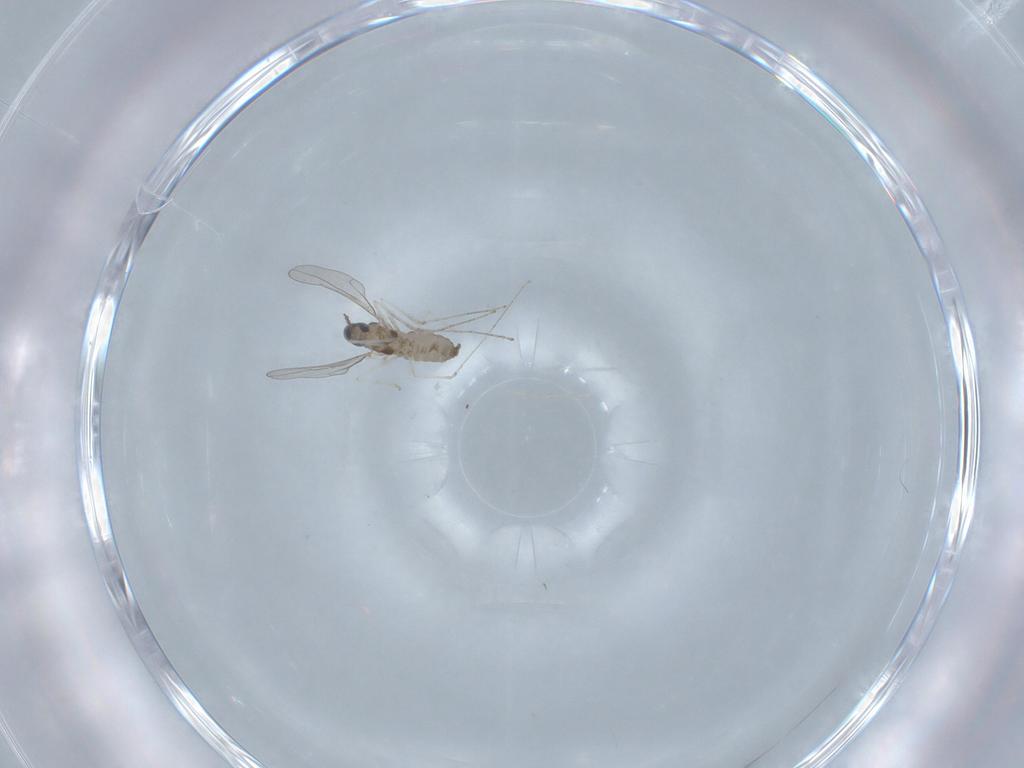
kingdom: Animalia
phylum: Arthropoda
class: Insecta
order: Diptera
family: Cecidomyiidae
